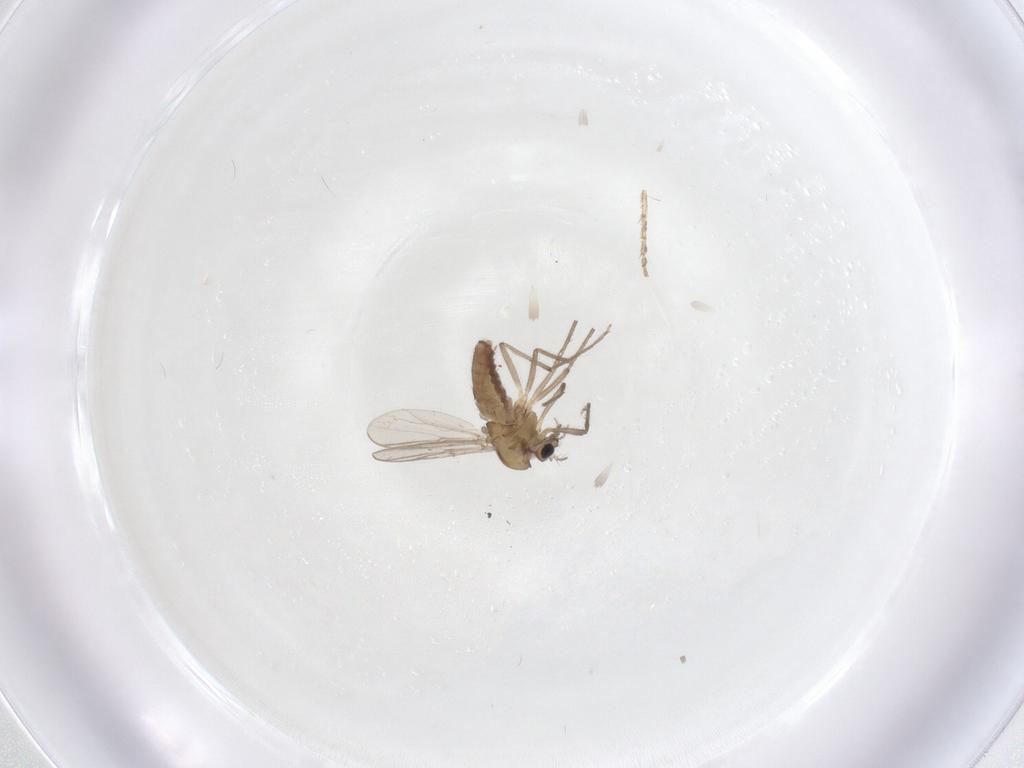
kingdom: Animalia
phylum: Arthropoda
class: Insecta
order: Diptera
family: Ceratopogonidae
